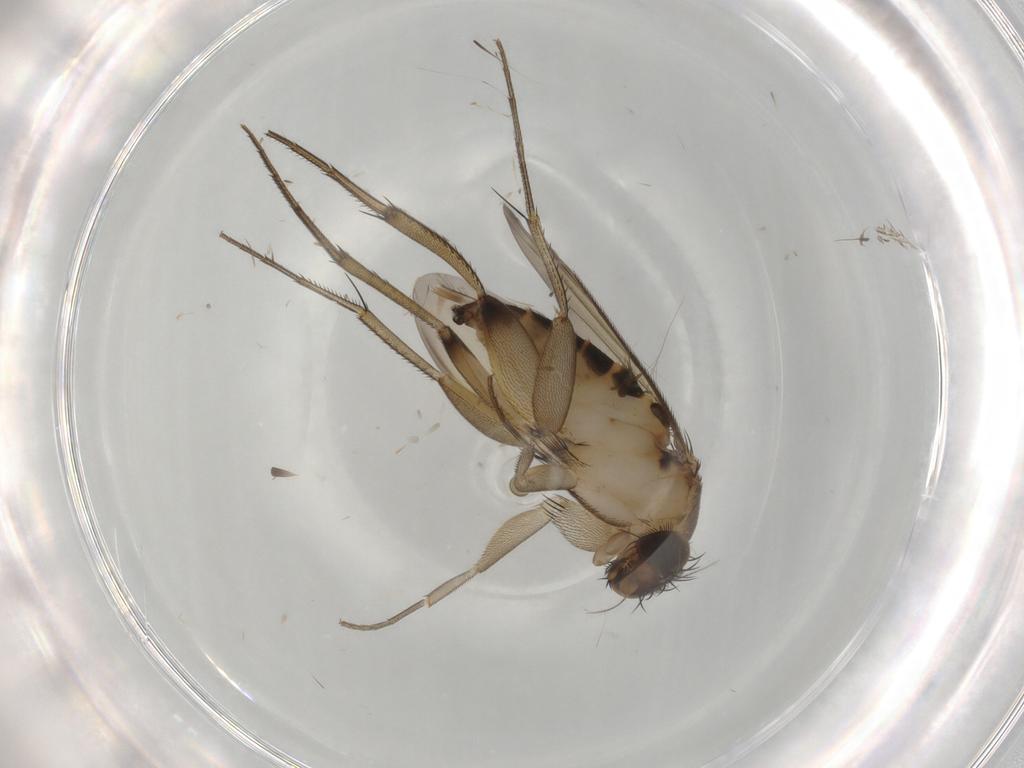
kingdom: Animalia
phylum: Arthropoda
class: Insecta
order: Diptera
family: Phoridae
